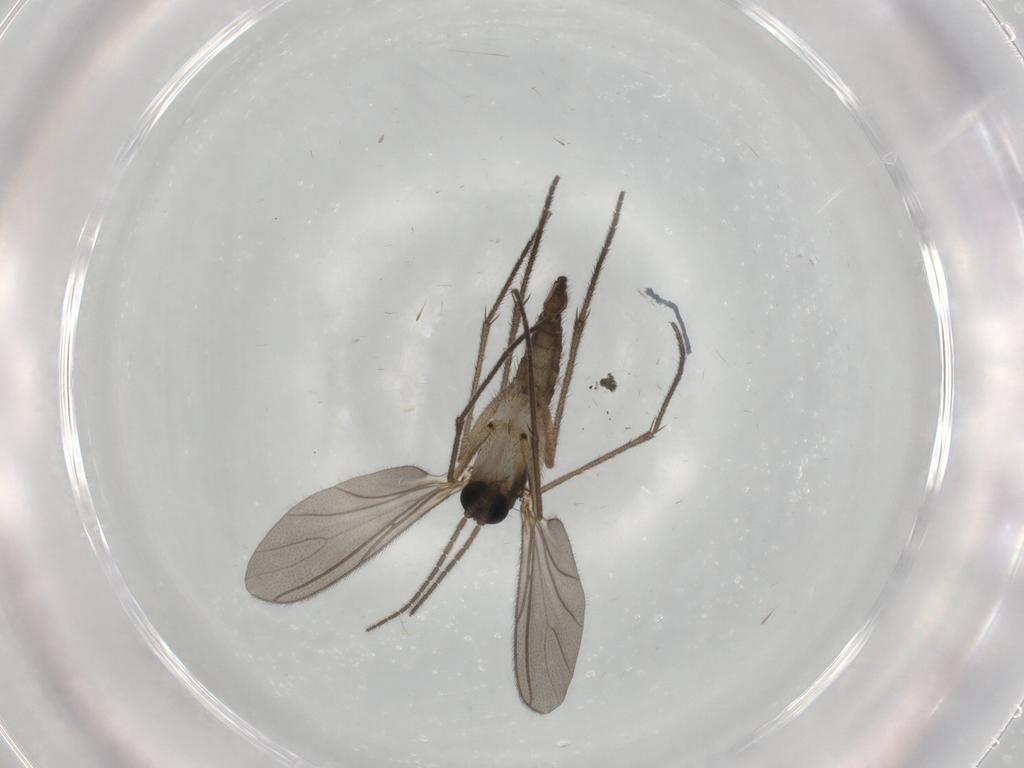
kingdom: Animalia
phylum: Arthropoda
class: Insecta
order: Diptera
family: Sciaridae
